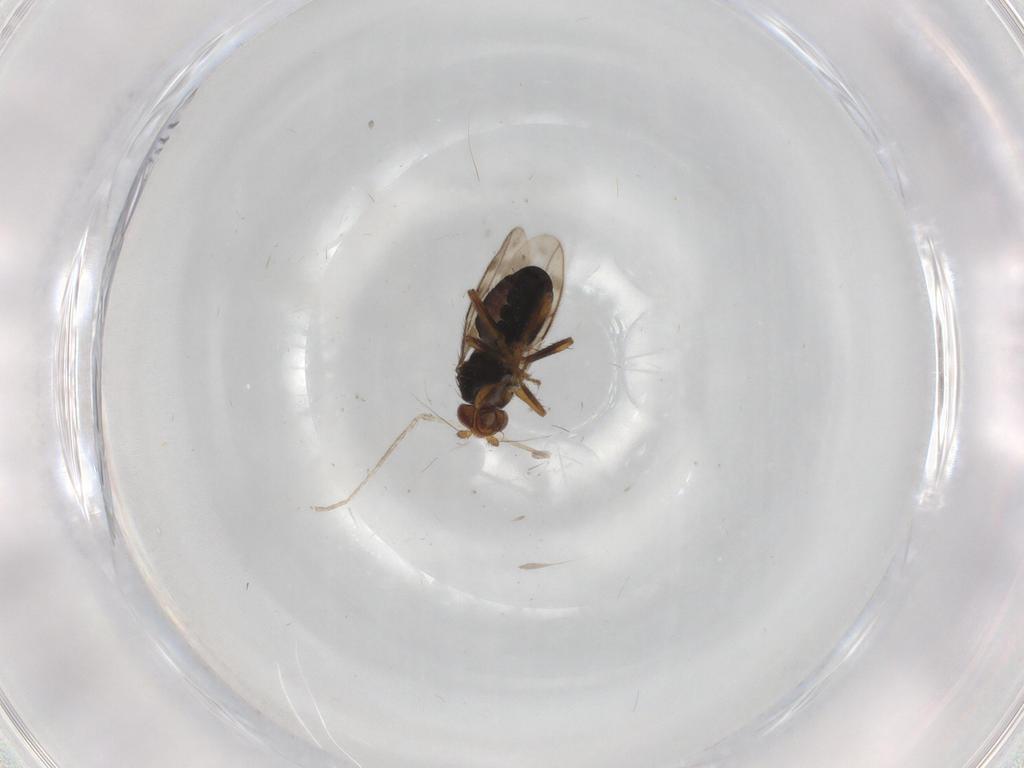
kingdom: Animalia
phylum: Arthropoda
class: Insecta
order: Diptera
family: Sphaeroceridae
